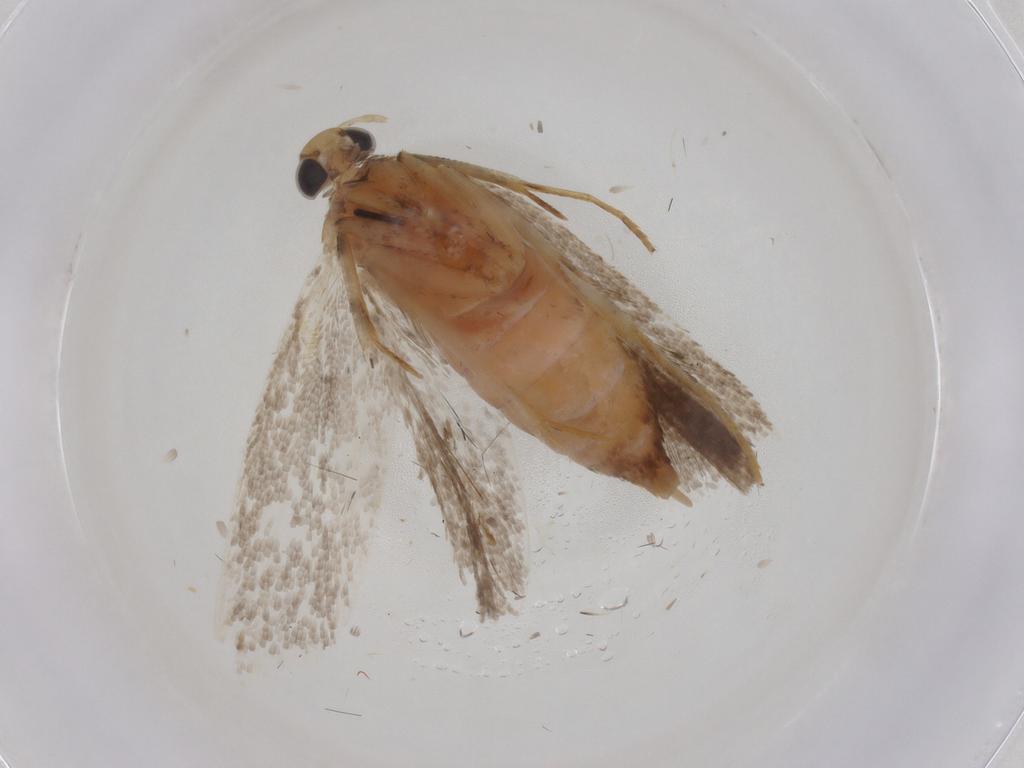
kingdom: Animalia
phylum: Arthropoda
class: Insecta
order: Lepidoptera
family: Gelechiidae
